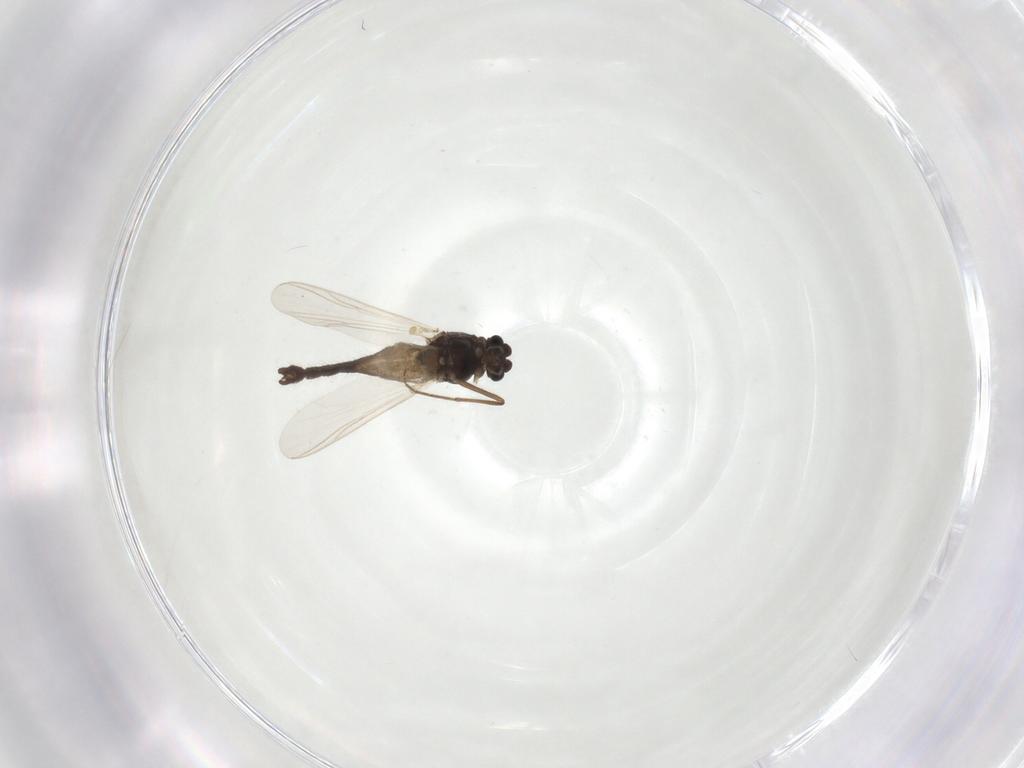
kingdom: Animalia
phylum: Arthropoda
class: Insecta
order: Diptera
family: Chironomidae
